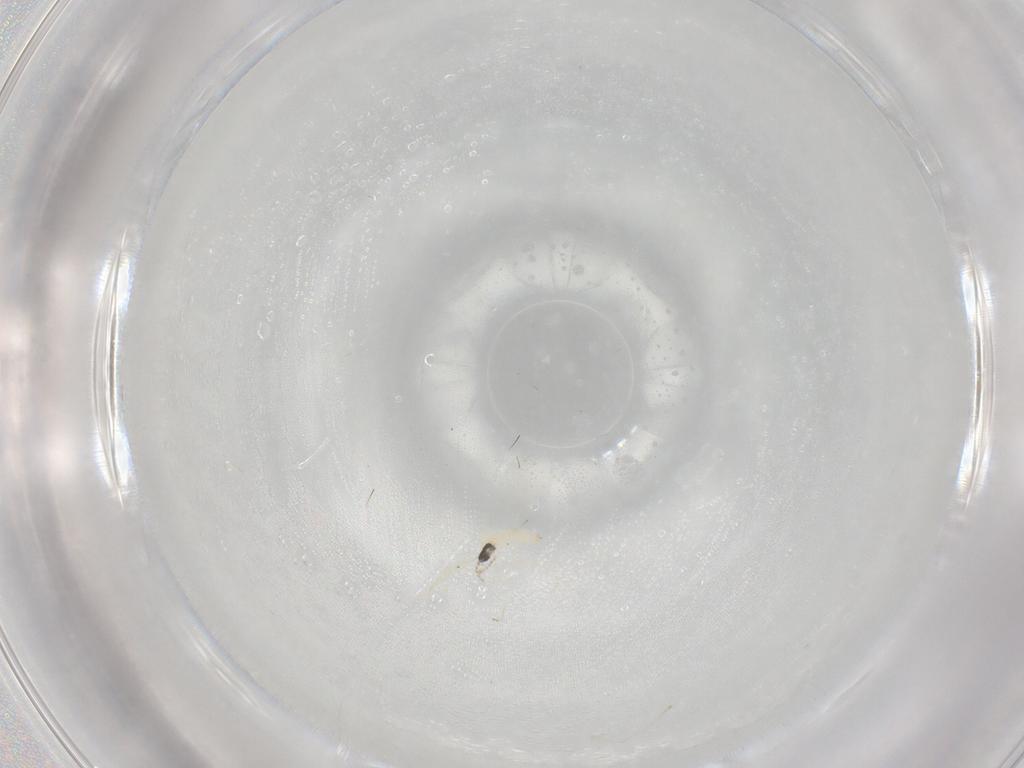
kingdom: Animalia
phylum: Arthropoda
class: Insecta
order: Diptera
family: Cecidomyiidae
